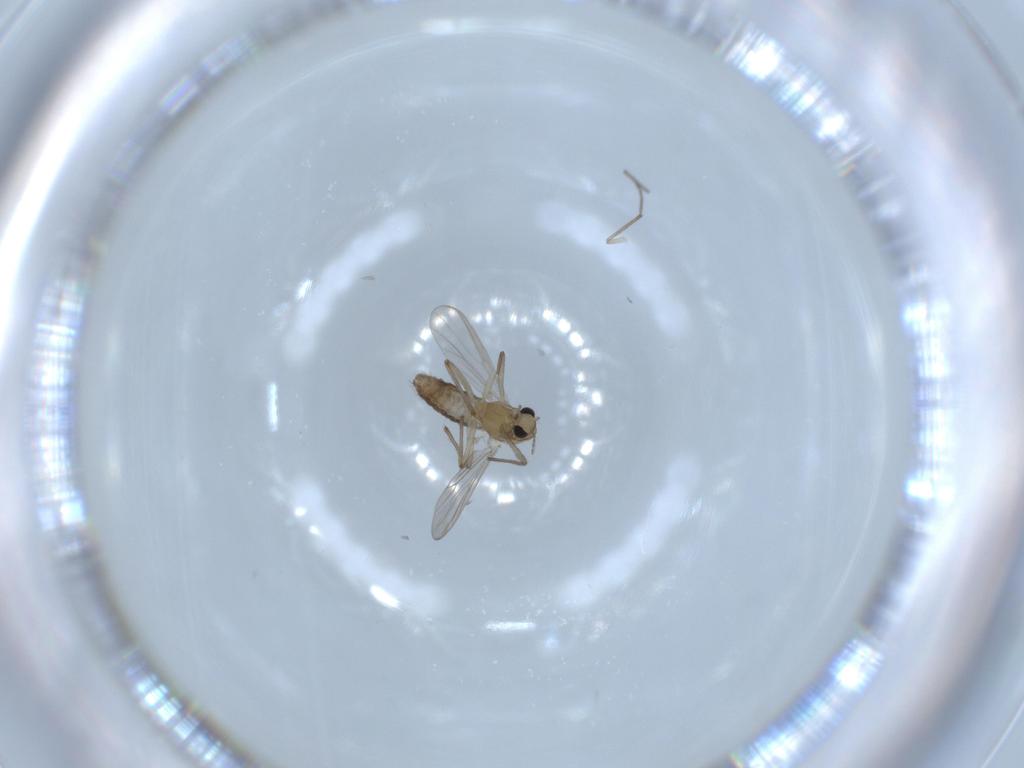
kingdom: Animalia
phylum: Arthropoda
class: Insecta
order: Diptera
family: Chironomidae
